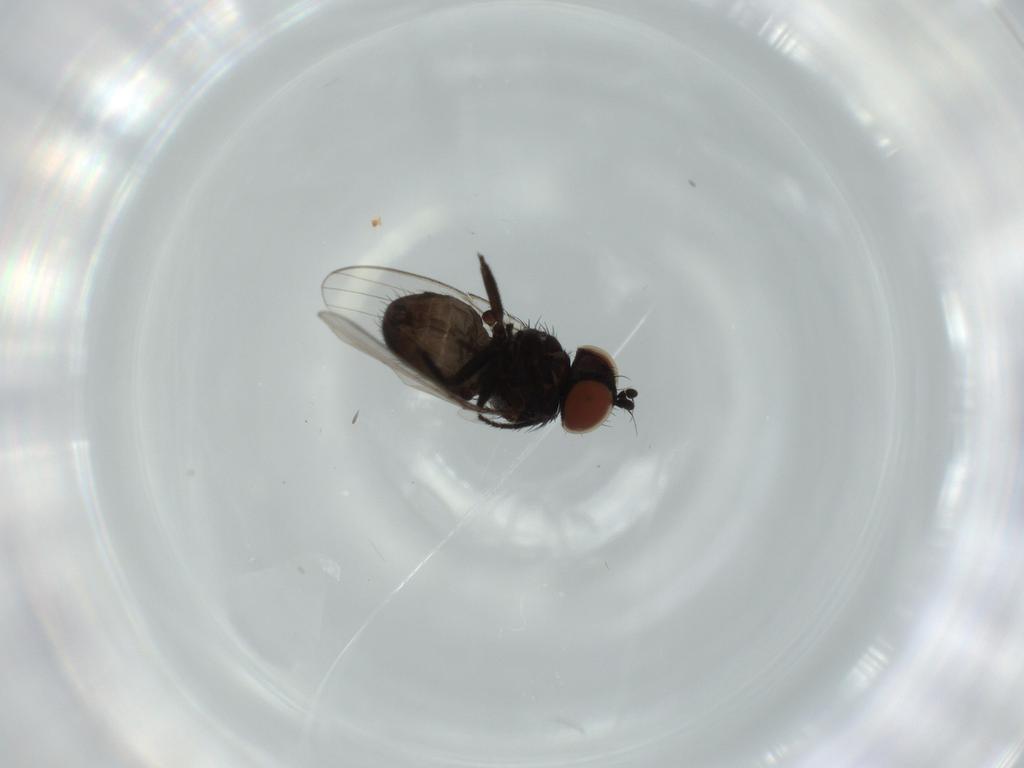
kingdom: Animalia
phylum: Arthropoda
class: Insecta
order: Diptera
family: Milichiidae
